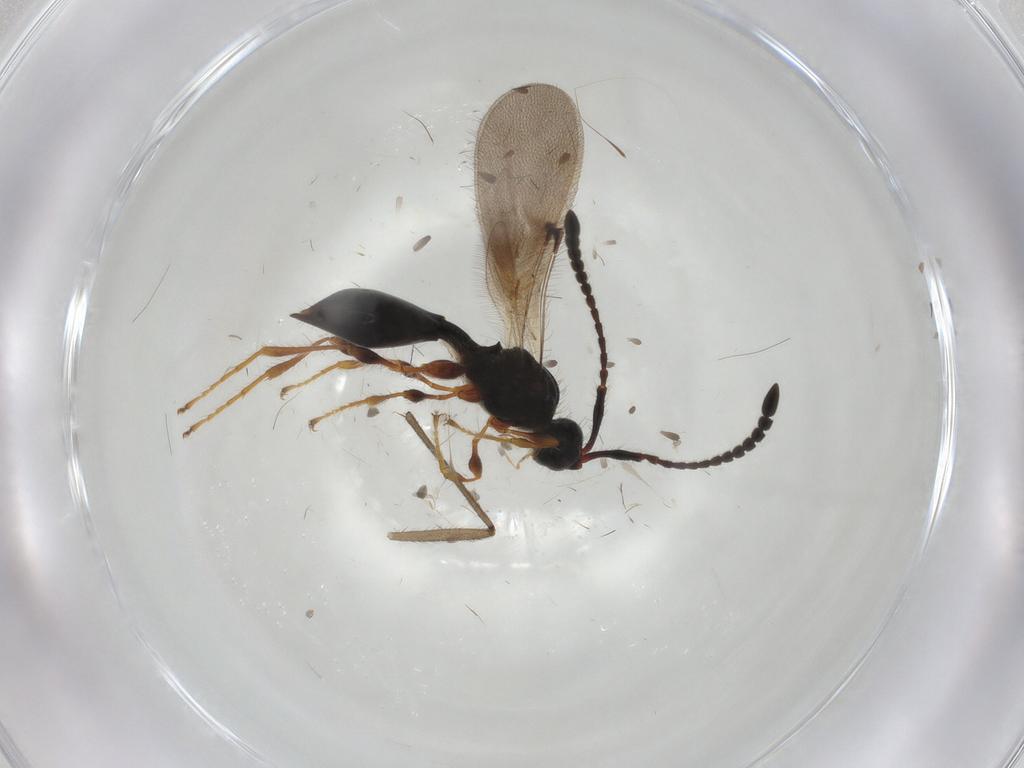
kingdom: Animalia
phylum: Arthropoda
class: Insecta
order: Hymenoptera
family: Diapriidae
